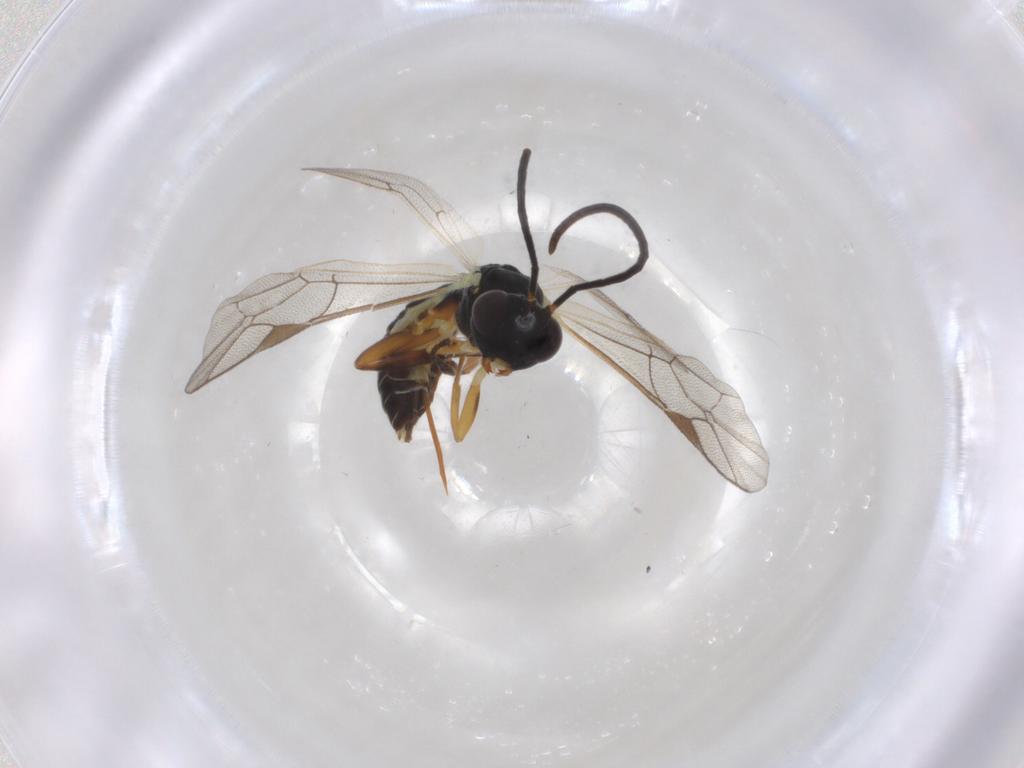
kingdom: Animalia
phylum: Arthropoda
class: Insecta
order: Hymenoptera
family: Ichneumonidae
